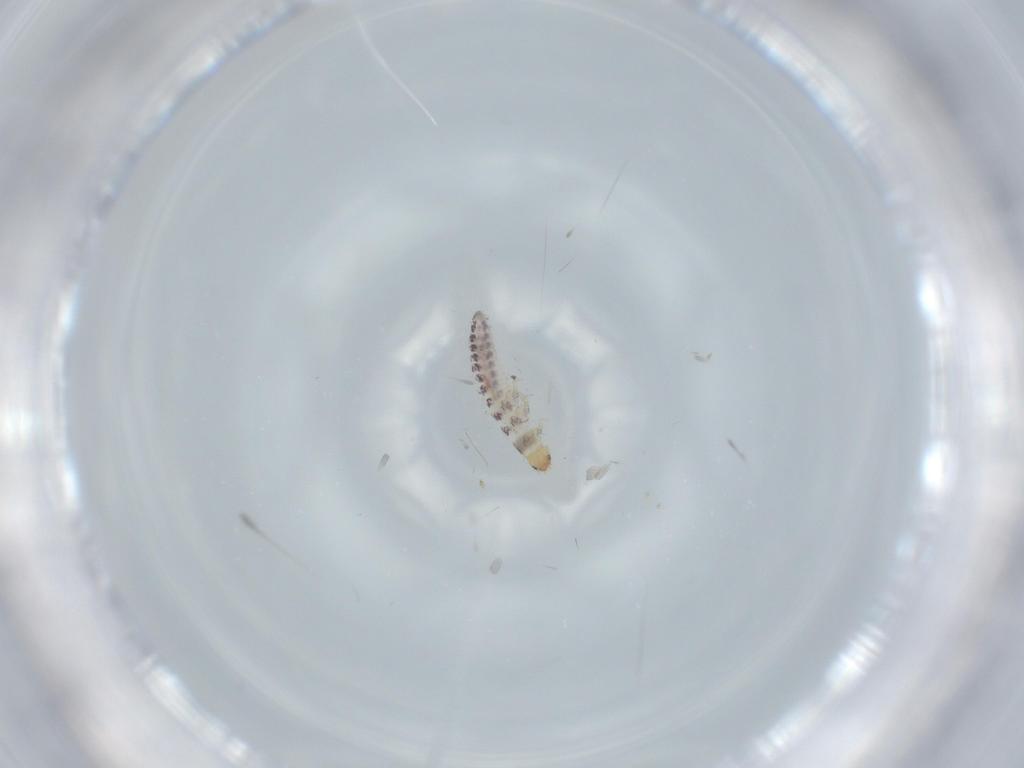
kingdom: Animalia
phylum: Arthropoda
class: Insecta
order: Diptera
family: Ceratopogonidae
